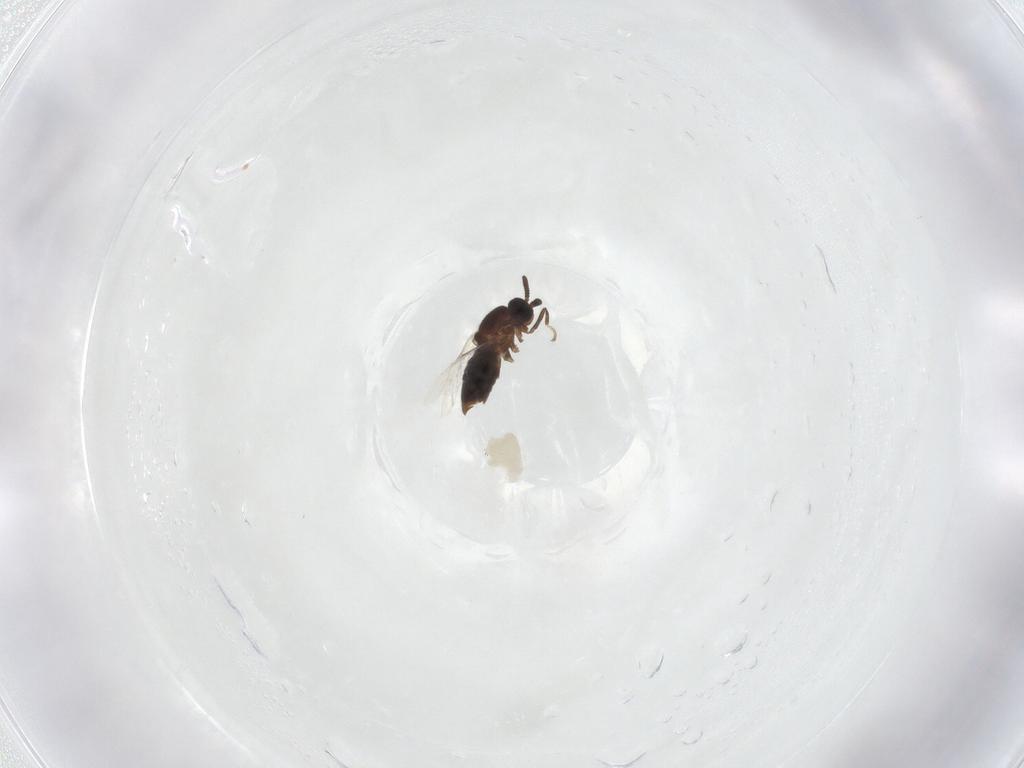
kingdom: Animalia
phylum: Arthropoda
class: Insecta
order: Diptera
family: Scatopsidae
